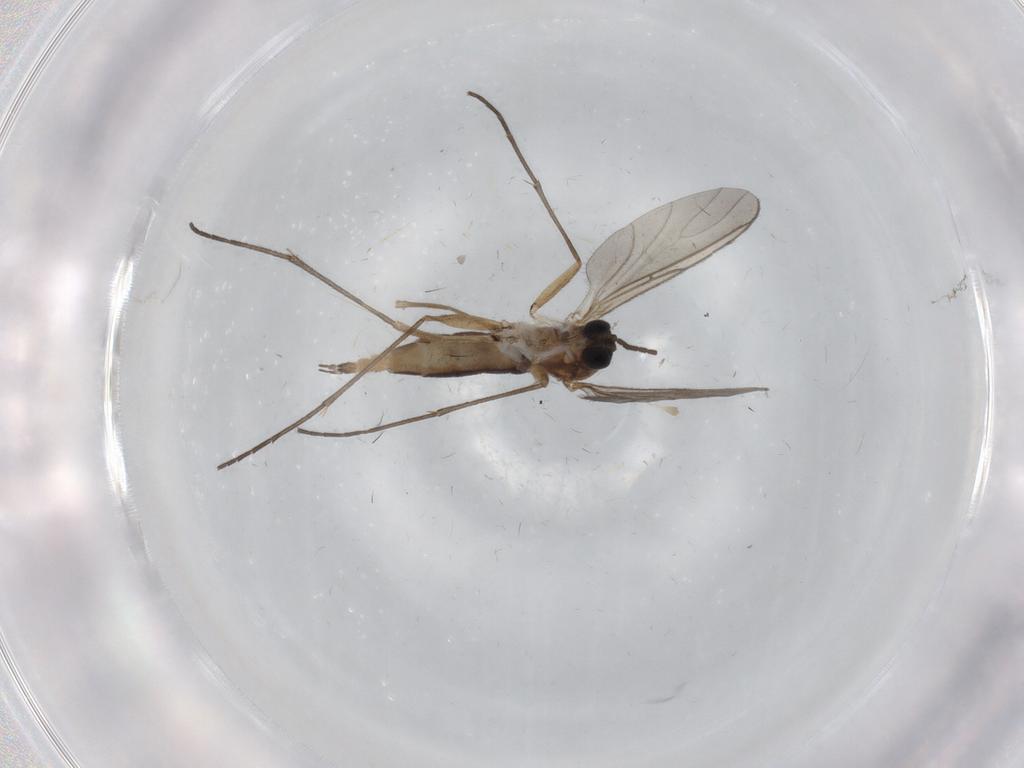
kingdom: Animalia
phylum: Arthropoda
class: Insecta
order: Diptera
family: Sciaridae
